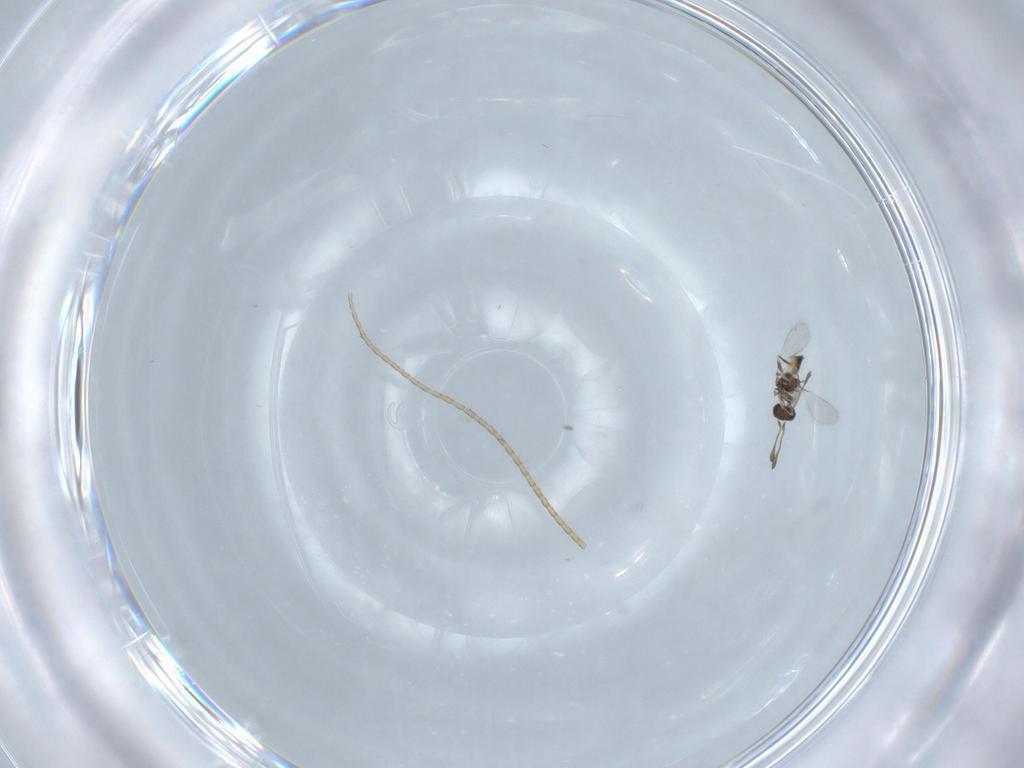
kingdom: Animalia
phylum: Arthropoda
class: Insecta
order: Hymenoptera
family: Mymaridae
